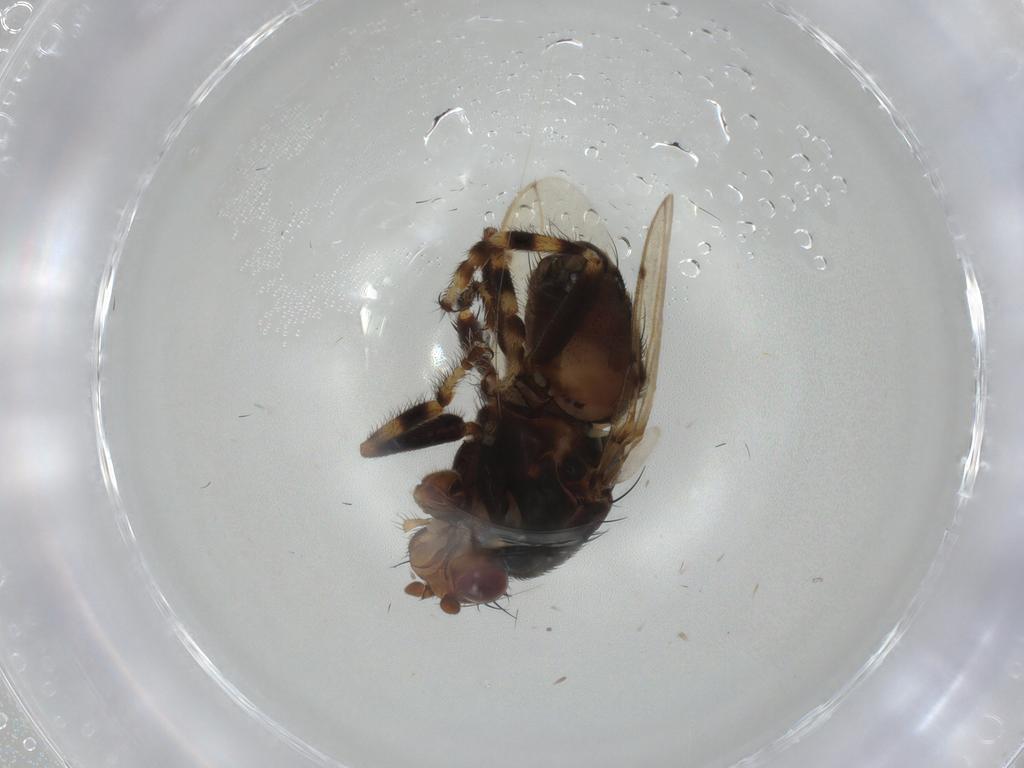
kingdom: Animalia
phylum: Arthropoda
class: Insecta
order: Diptera
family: Sphaeroceridae
